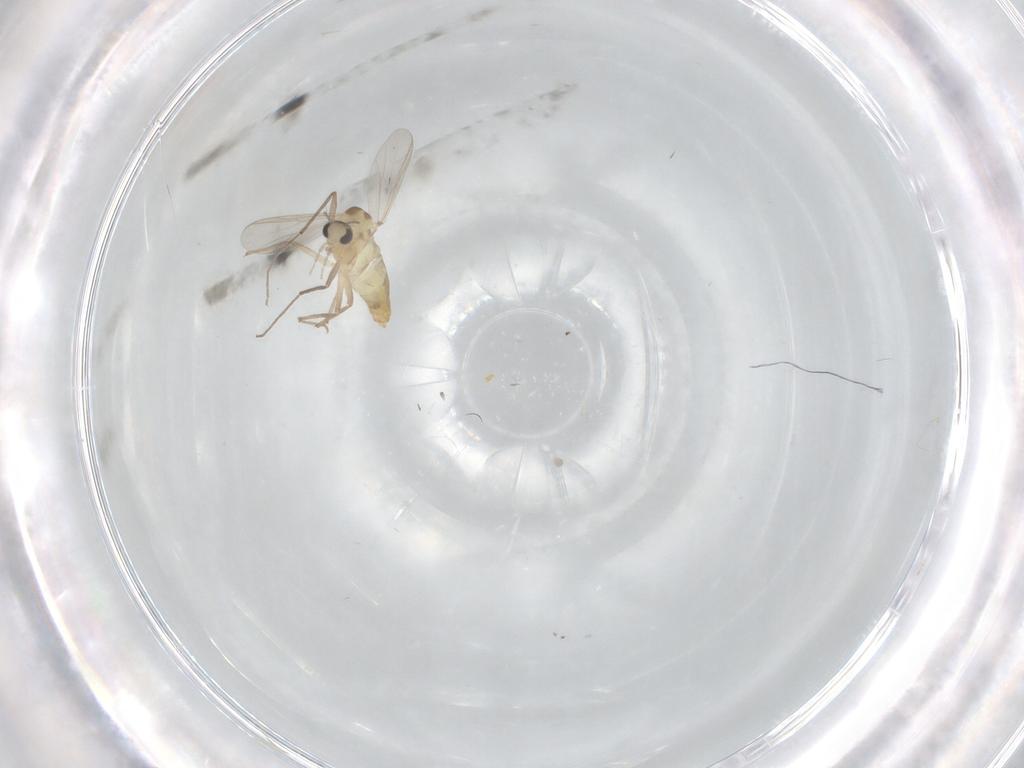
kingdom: Animalia
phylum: Arthropoda
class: Insecta
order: Diptera
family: Chironomidae
